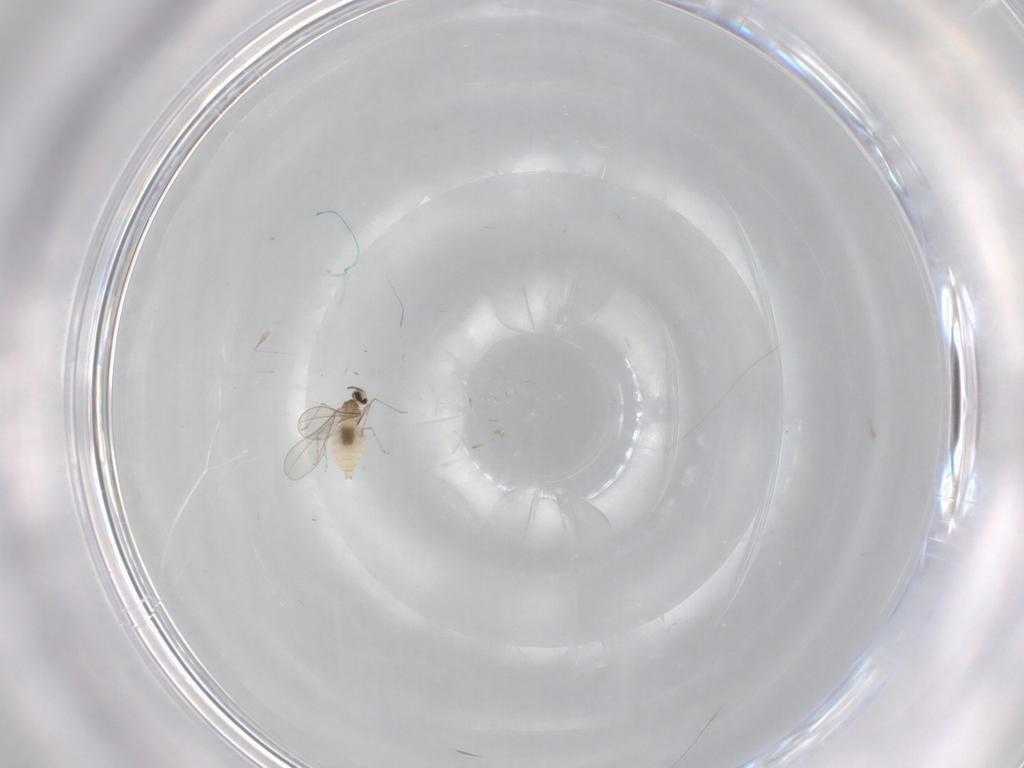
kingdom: Animalia
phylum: Arthropoda
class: Insecta
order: Diptera
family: Cecidomyiidae
